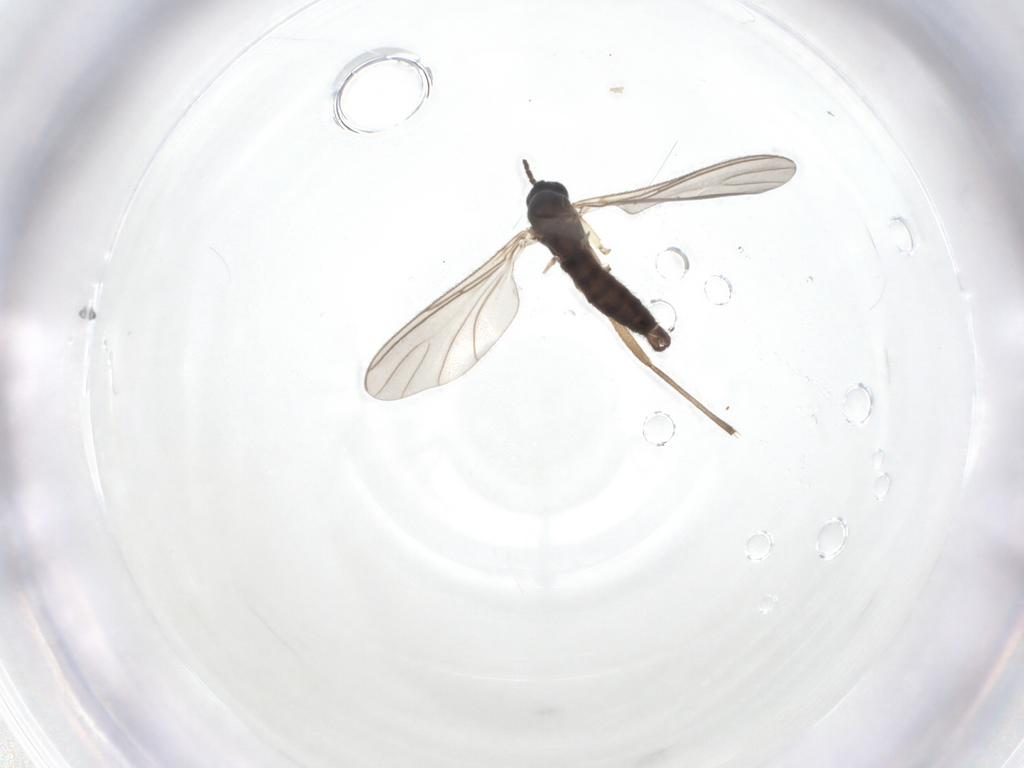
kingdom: Animalia
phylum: Arthropoda
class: Insecta
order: Diptera
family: Sciaridae
